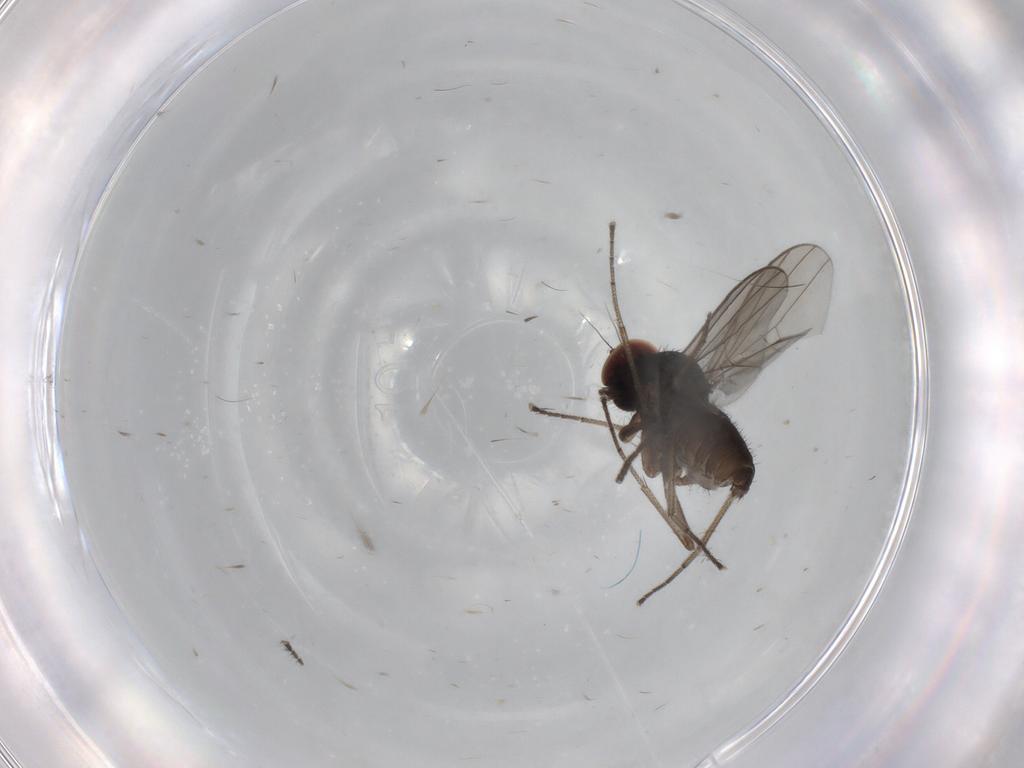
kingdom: Animalia
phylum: Arthropoda
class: Insecta
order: Diptera
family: Dolichopodidae
